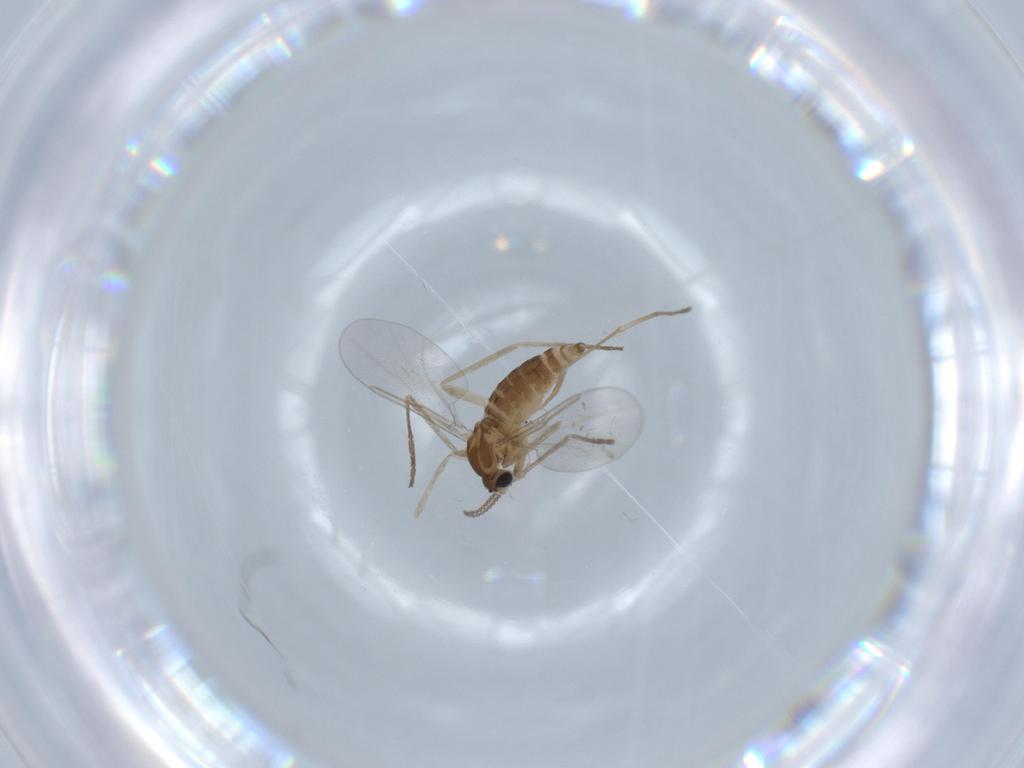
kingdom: Animalia
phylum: Arthropoda
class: Insecta
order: Diptera
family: Cecidomyiidae
